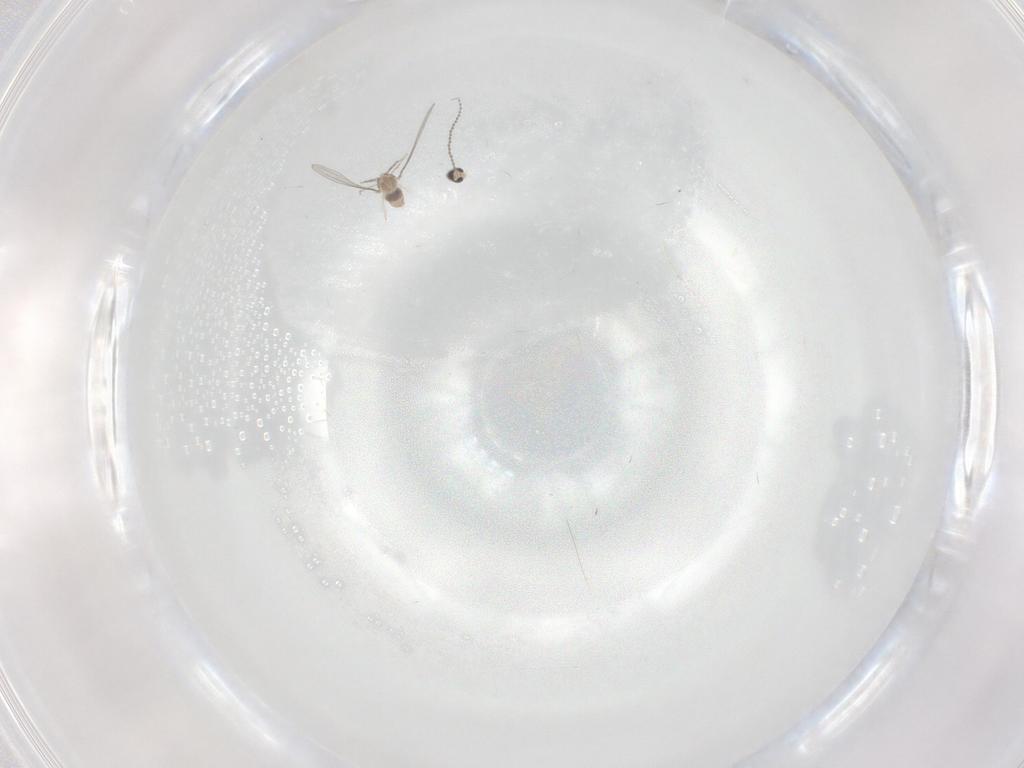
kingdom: Animalia
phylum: Arthropoda
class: Insecta
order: Diptera
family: Cecidomyiidae
